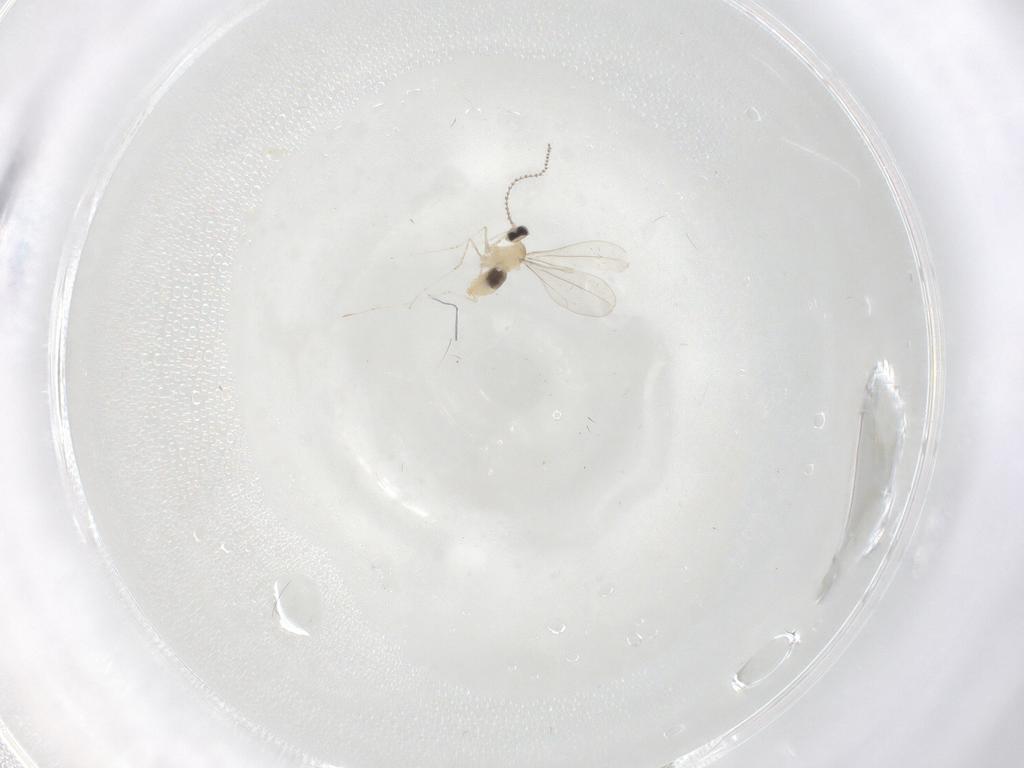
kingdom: Animalia
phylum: Arthropoda
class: Insecta
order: Diptera
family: Cecidomyiidae
